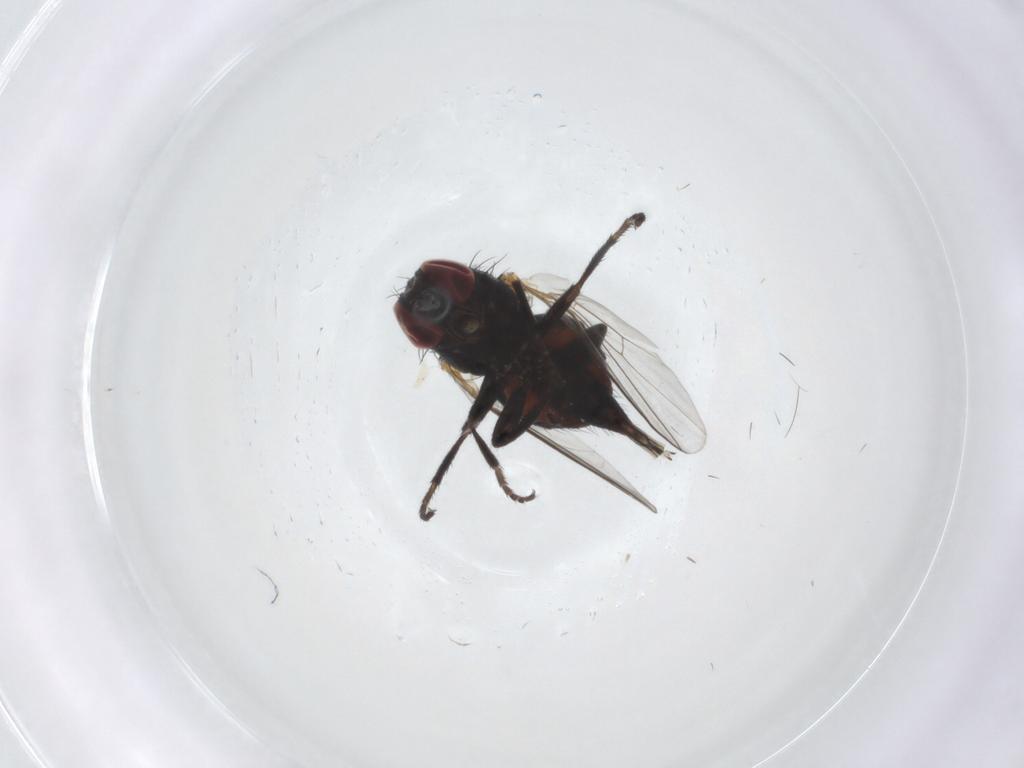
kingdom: Animalia
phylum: Arthropoda
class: Insecta
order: Diptera
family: Agromyzidae
